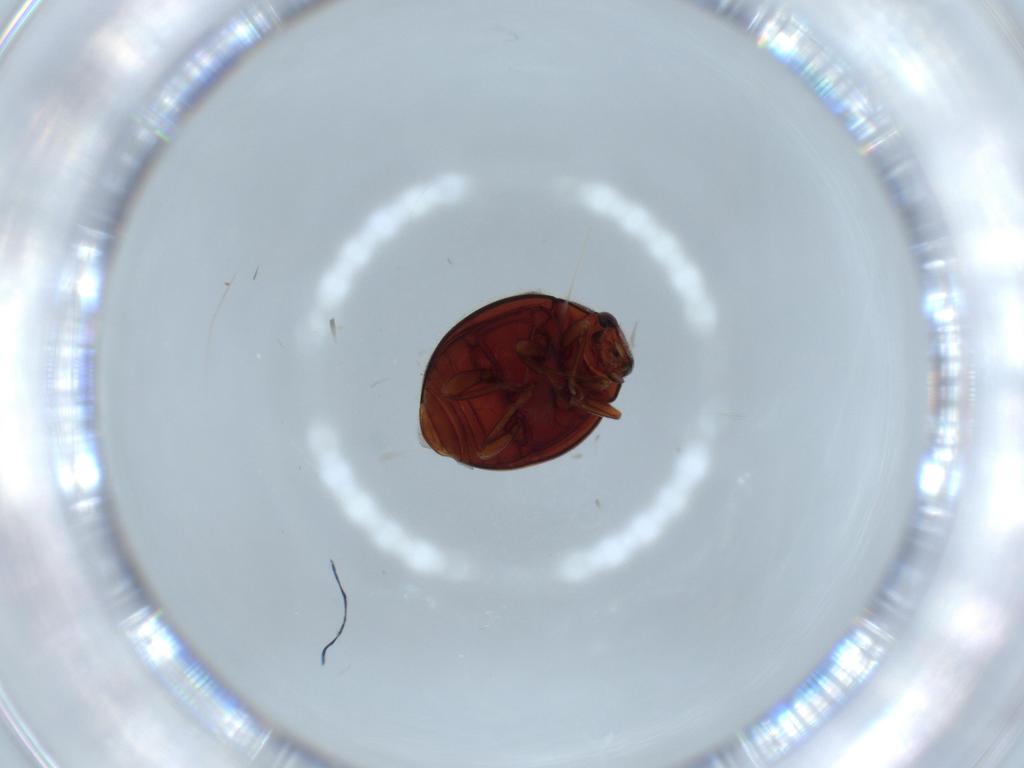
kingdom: Animalia
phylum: Arthropoda
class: Insecta
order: Coleoptera
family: Coccinellidae
